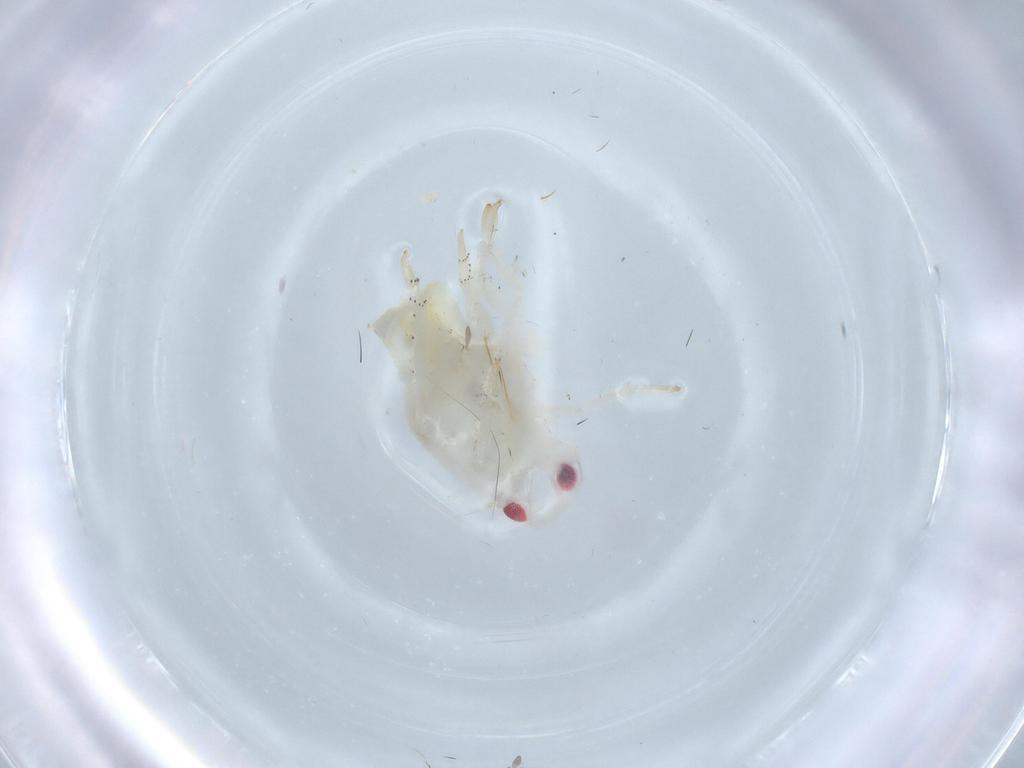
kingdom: Animalia
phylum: Arthropoda
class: Insecta
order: Hemiptera
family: Flatidae
